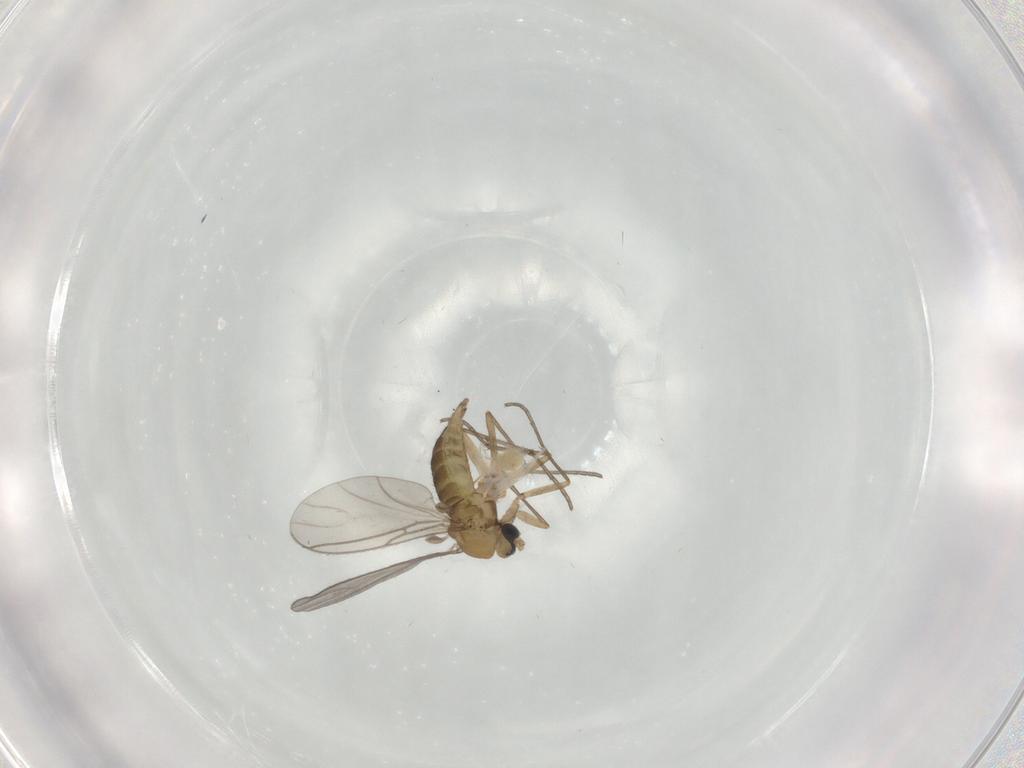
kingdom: Animalia
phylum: Arthropoda
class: Insecta
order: Diptera
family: Sciaridae
